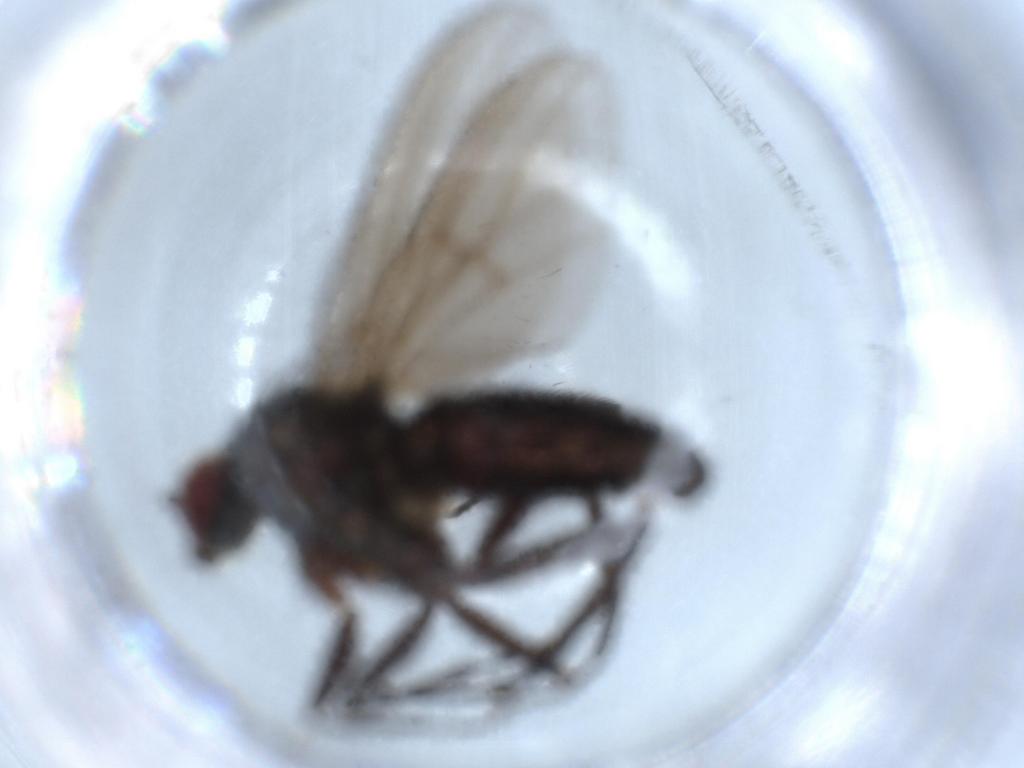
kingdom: Animalia
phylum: Arthropoda
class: Insecta
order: Diptera
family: Dolichopodidae
